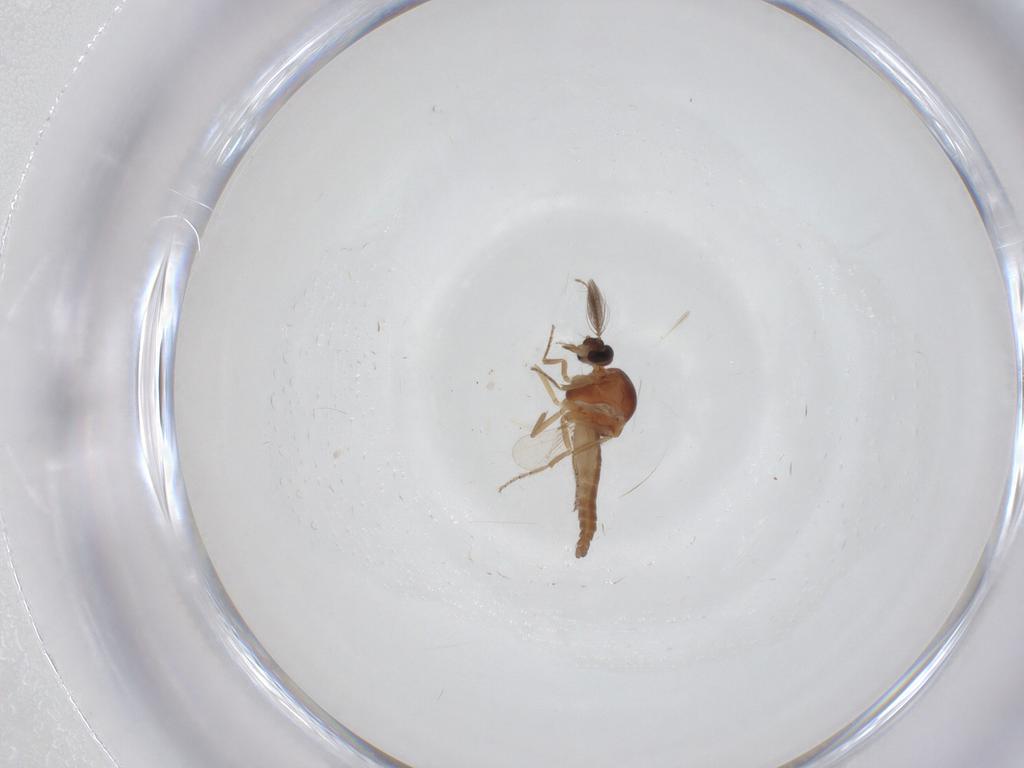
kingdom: Animalia
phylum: Arthropoda
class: Insecta
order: Diptera
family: Ceratopogonidae
